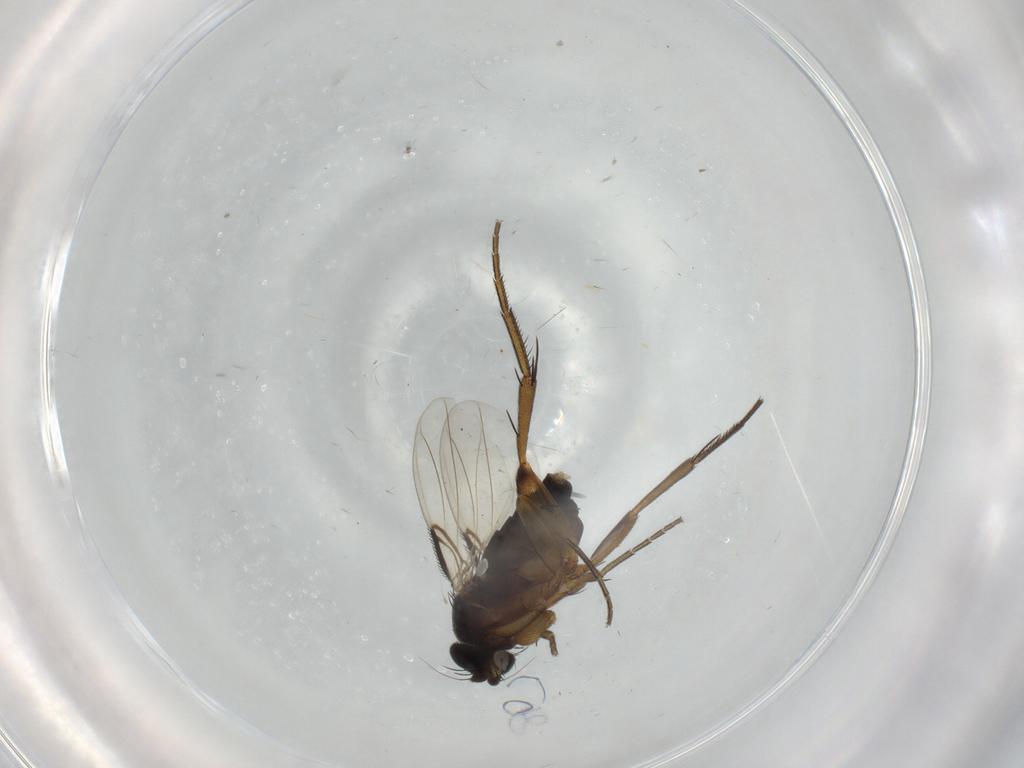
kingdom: Animalia
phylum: Arthropoda
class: Insecta
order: Diptera
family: Phoridae
